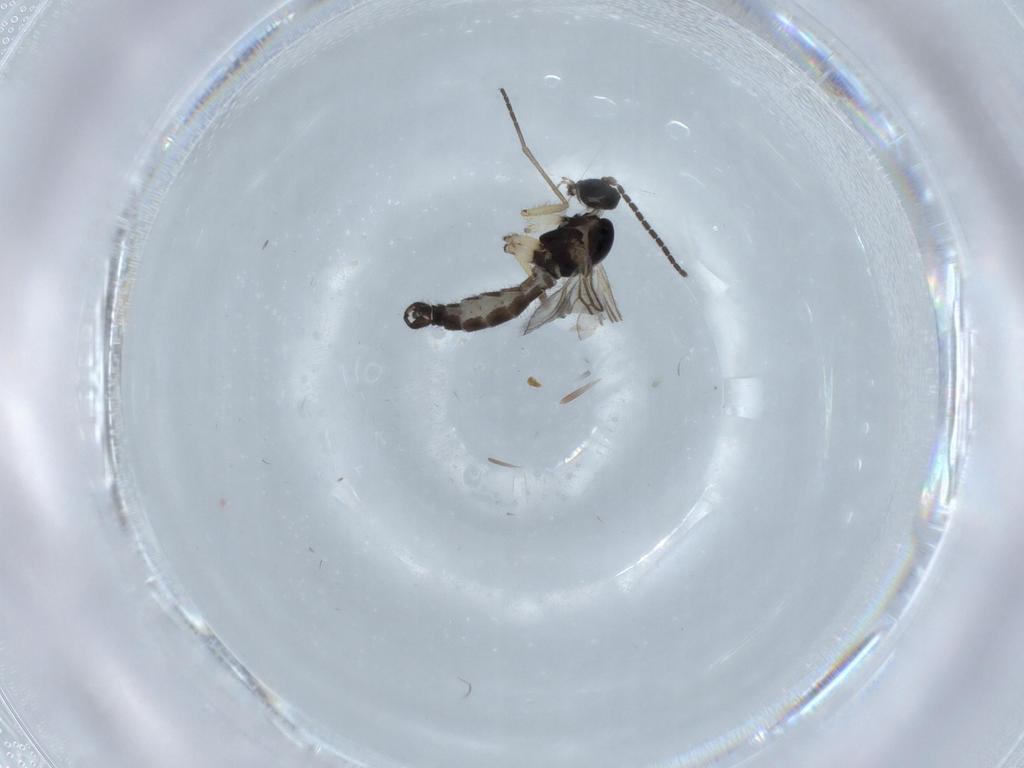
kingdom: Animalia
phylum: Arthropoda
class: Insecta
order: Diptera
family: Sciaridae
